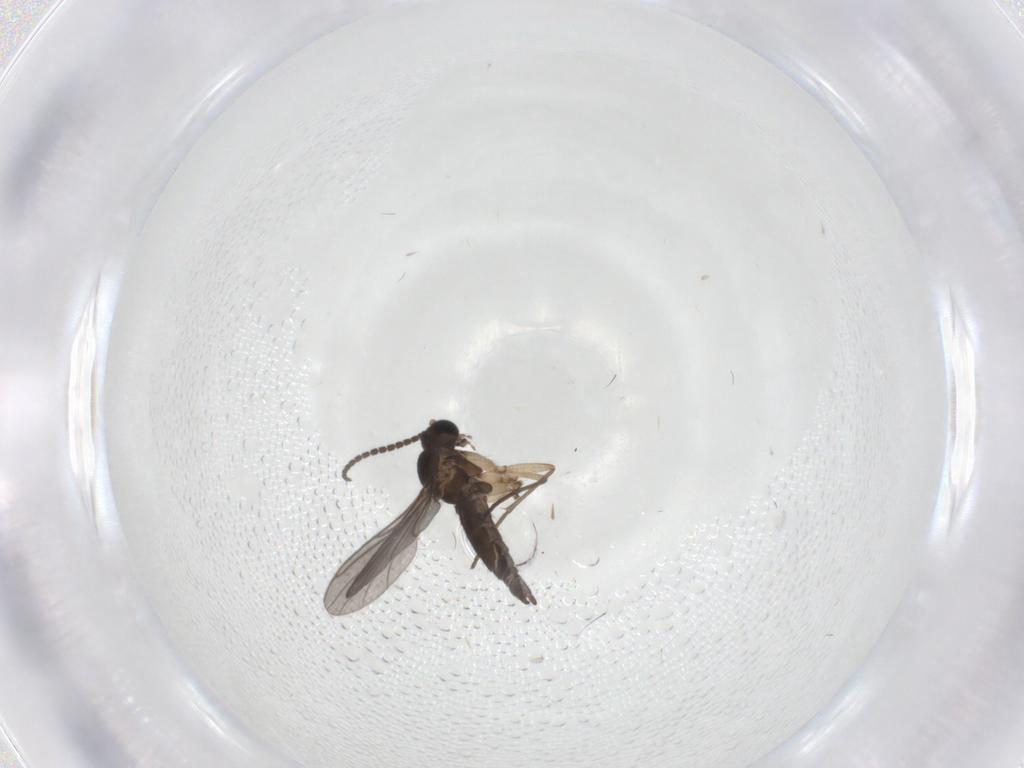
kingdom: Animalia
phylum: Arthropoda
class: Insecta
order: Diptera
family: Sciaridae
